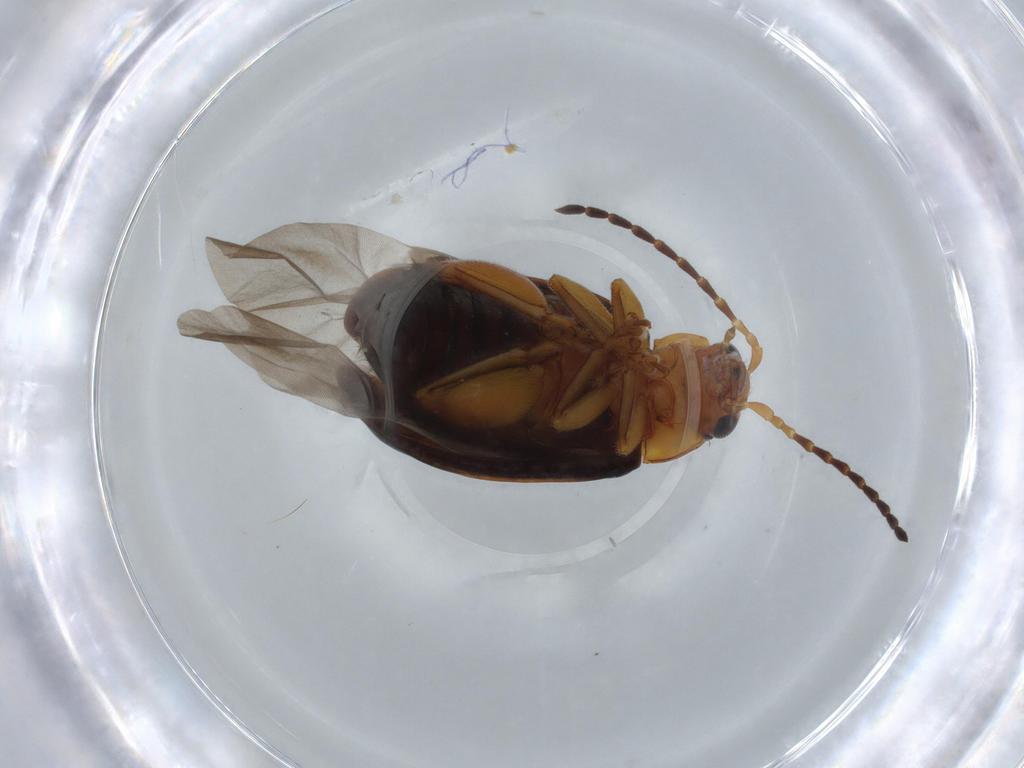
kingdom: Animalia
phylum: Arthropoda
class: Insecta
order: Coleoptera
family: Chrysomelidae
